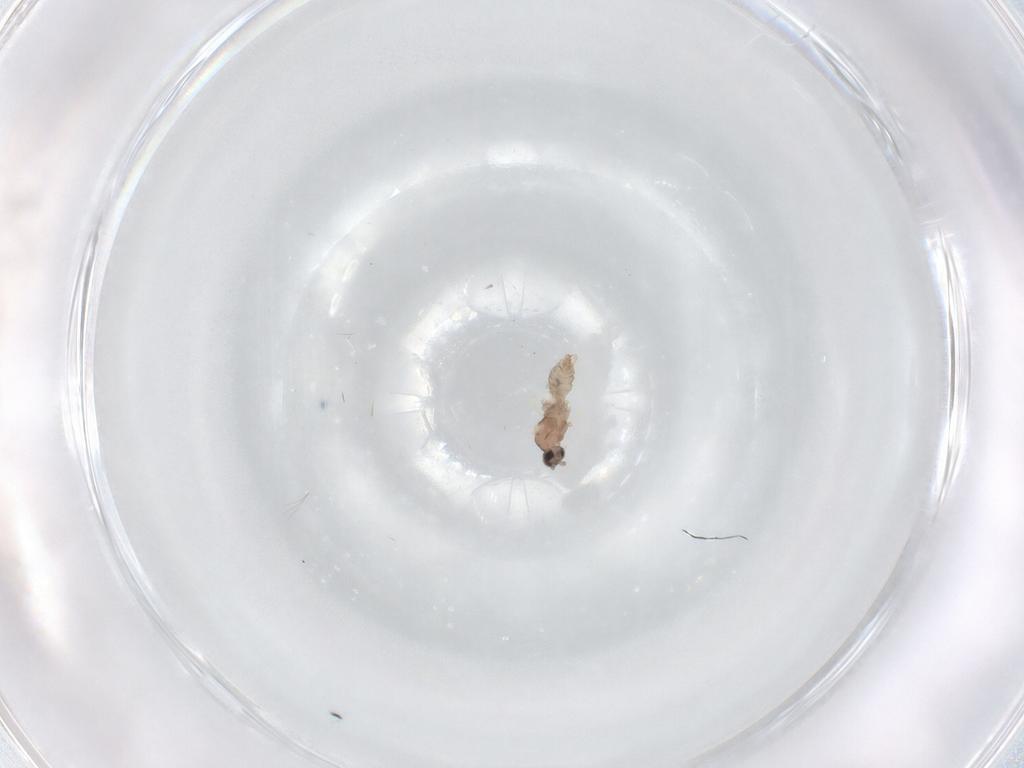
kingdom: Animalia
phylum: Arthropoda
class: Insecta
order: Diptera
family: Cecidomyiidae
